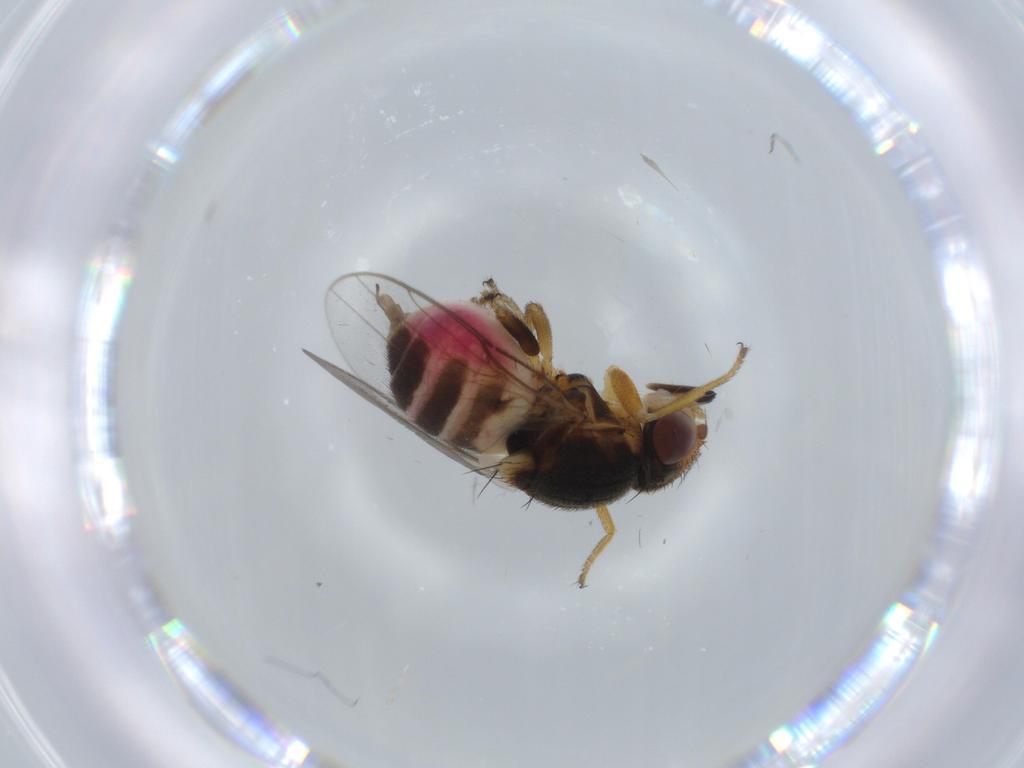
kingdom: Animalia
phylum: Arthropoda
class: Insecta
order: Diptera
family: Chloropidae
